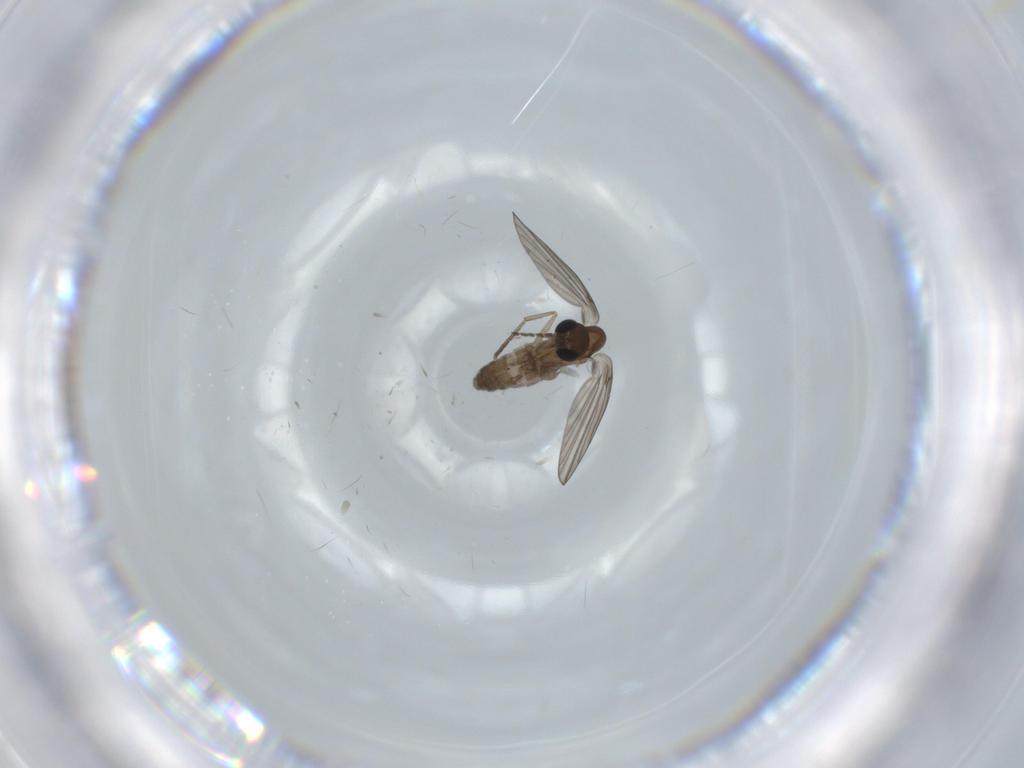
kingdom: Animalia
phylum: Arthropoda
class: Insecta
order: Diptera
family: Psychodidae
